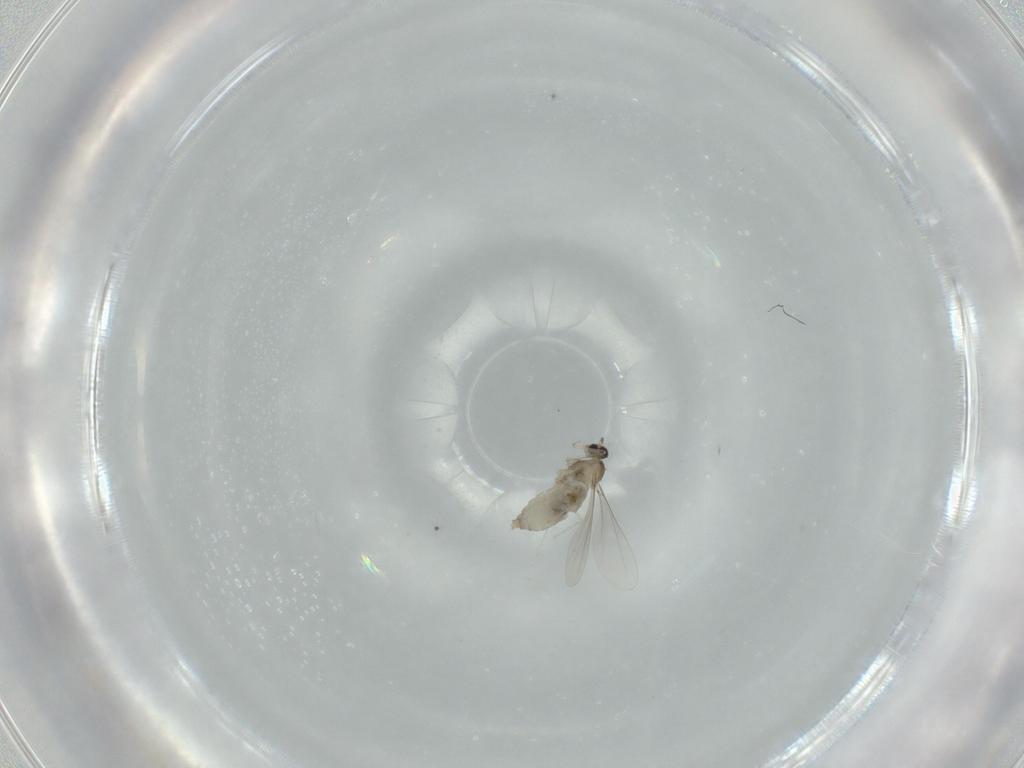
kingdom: Animalia
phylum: Arthropoda
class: Insecta
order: Diptera
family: Cecidomyiidae
